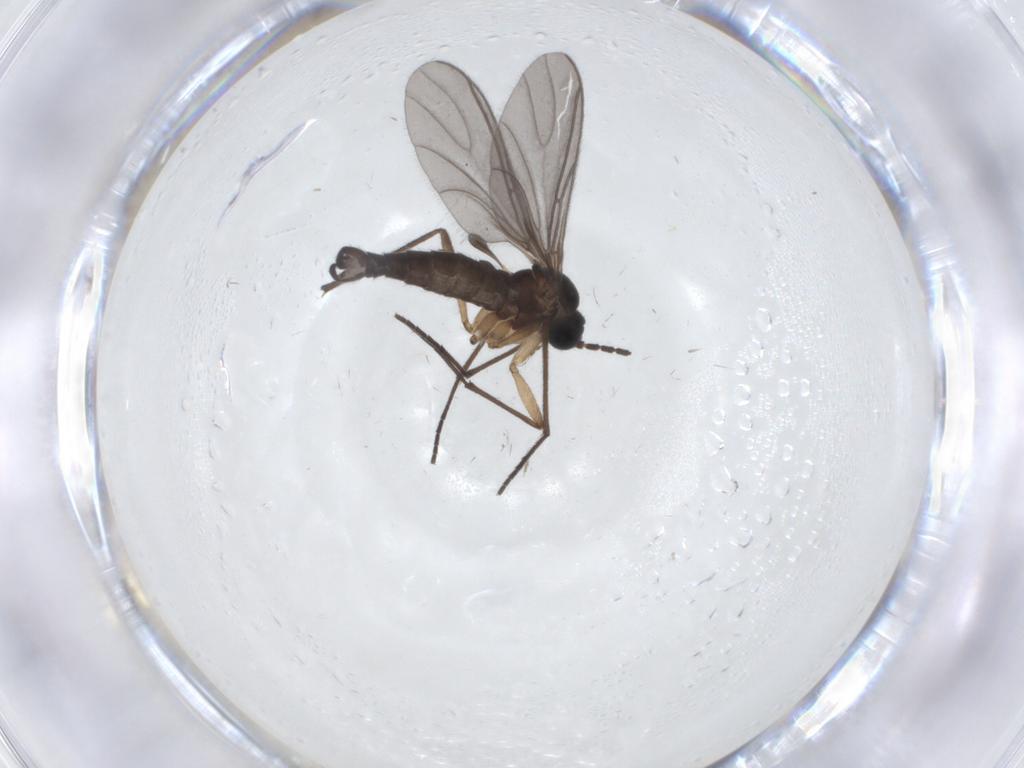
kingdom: Animalia
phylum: Arthropoda
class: Insecta
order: Diptera
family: Sciaridae
